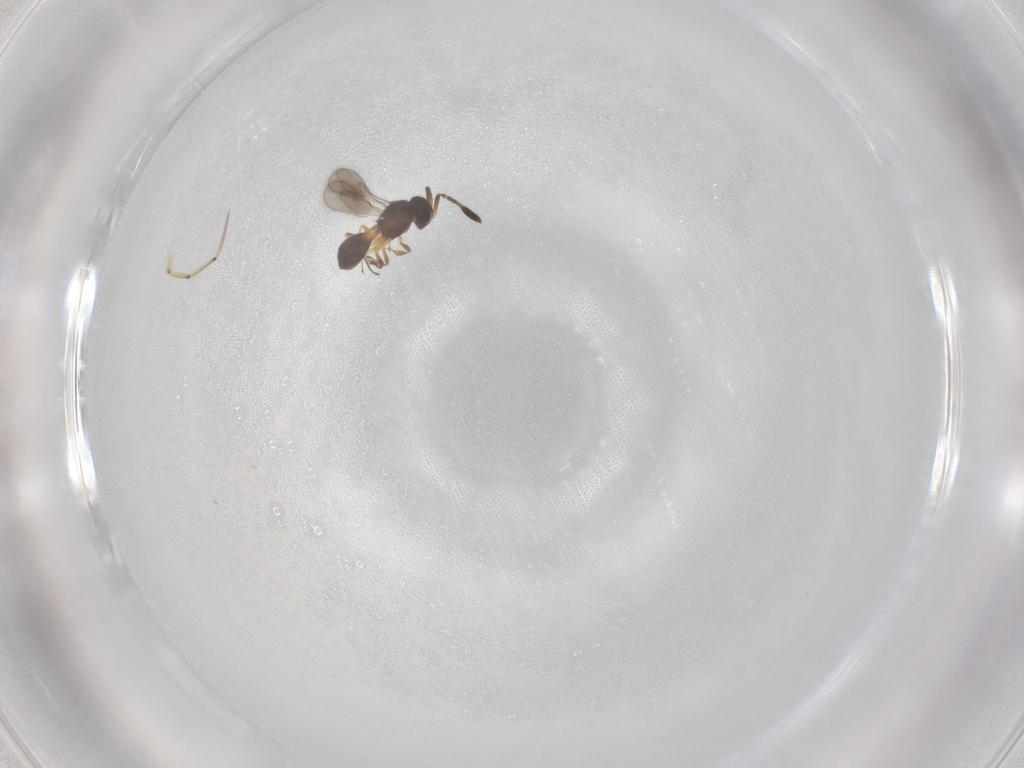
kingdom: Animalia
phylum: Arthropoda
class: Insecta
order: Hymenoptera
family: Scelionidae
